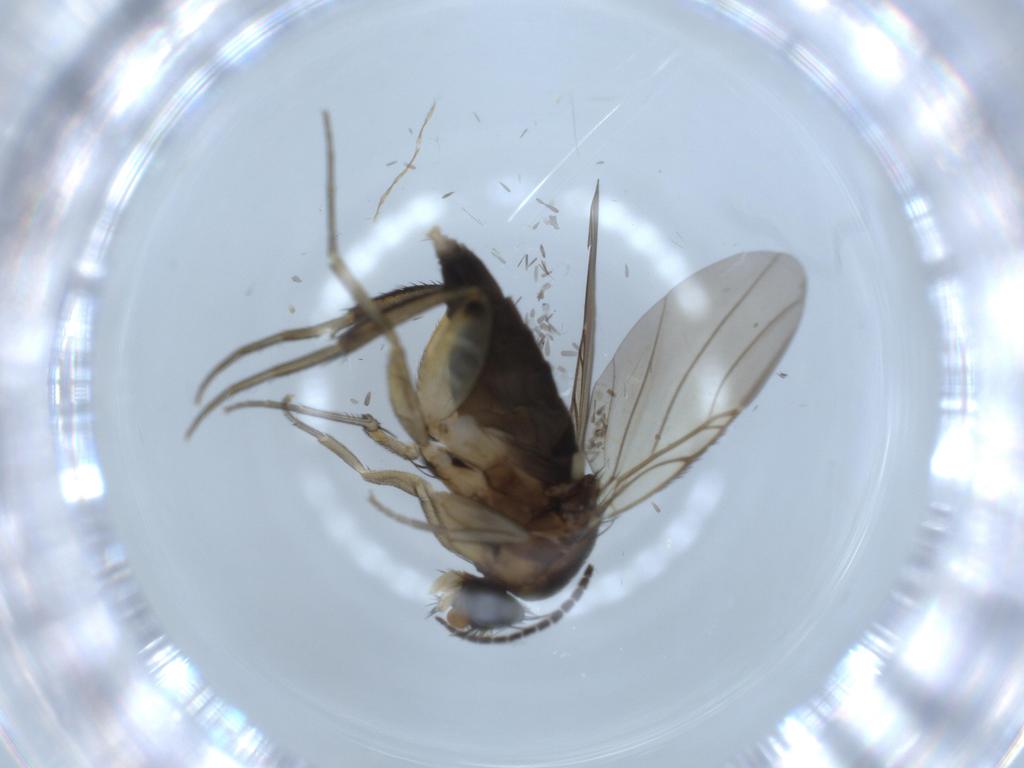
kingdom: Animalia
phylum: Arthropoda
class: Insecta
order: Diptera
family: Phoridae
